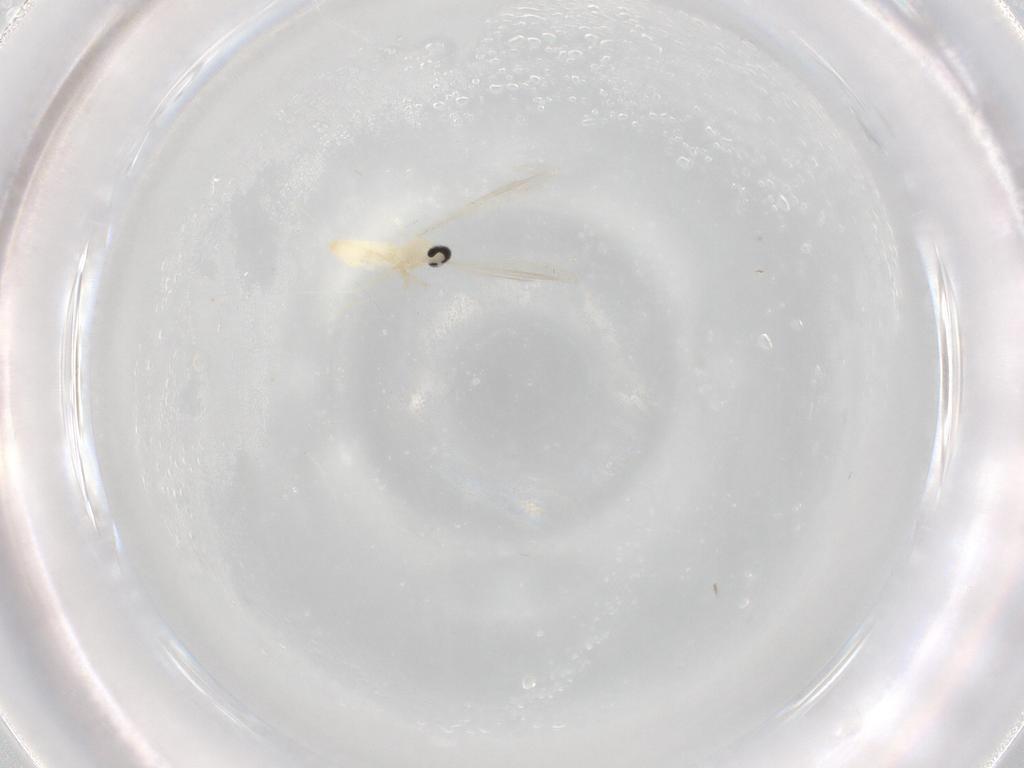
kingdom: Animalia
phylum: Arthropoda
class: Insecta
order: Diptera
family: Cecidomyiidae
